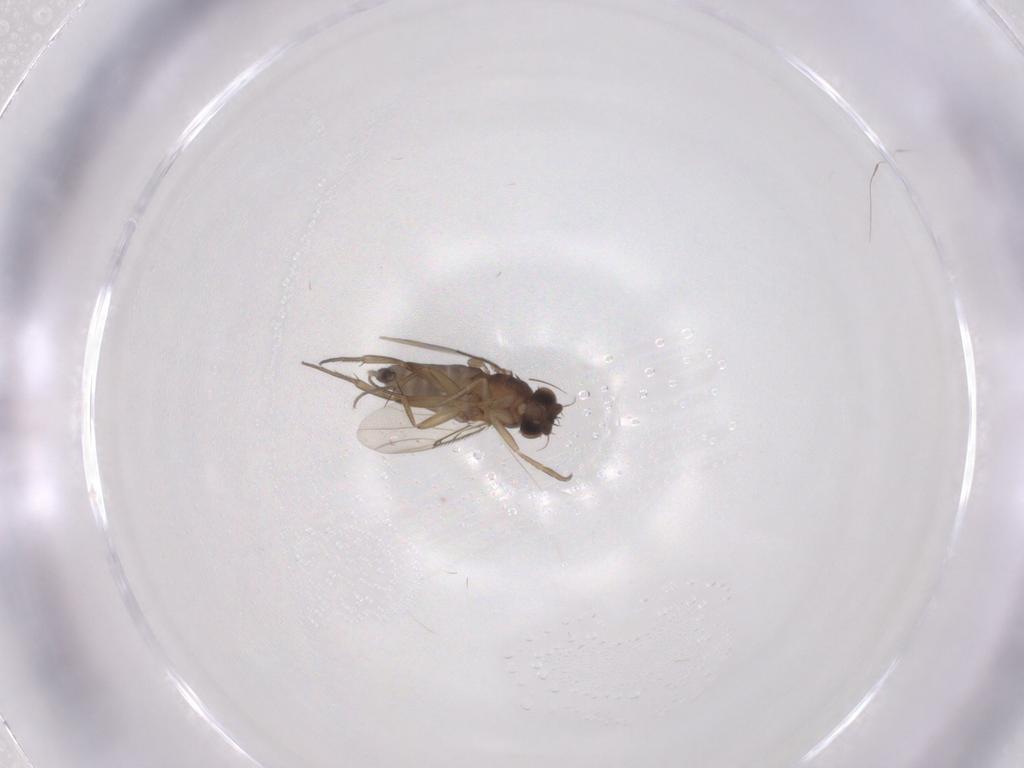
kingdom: Animalia
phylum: Arthropoda
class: Insecta
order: Diptera
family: Phoridae
